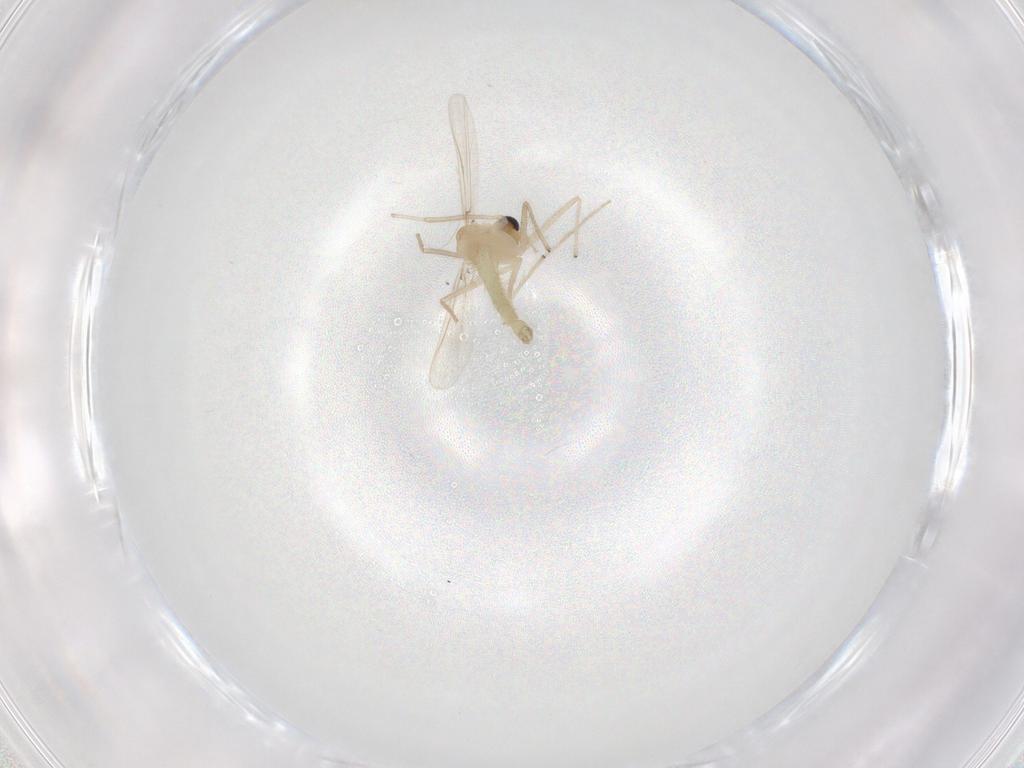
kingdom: Animalia
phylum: Arthropoda
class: Insecta
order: Diptera
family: Chironomidae
